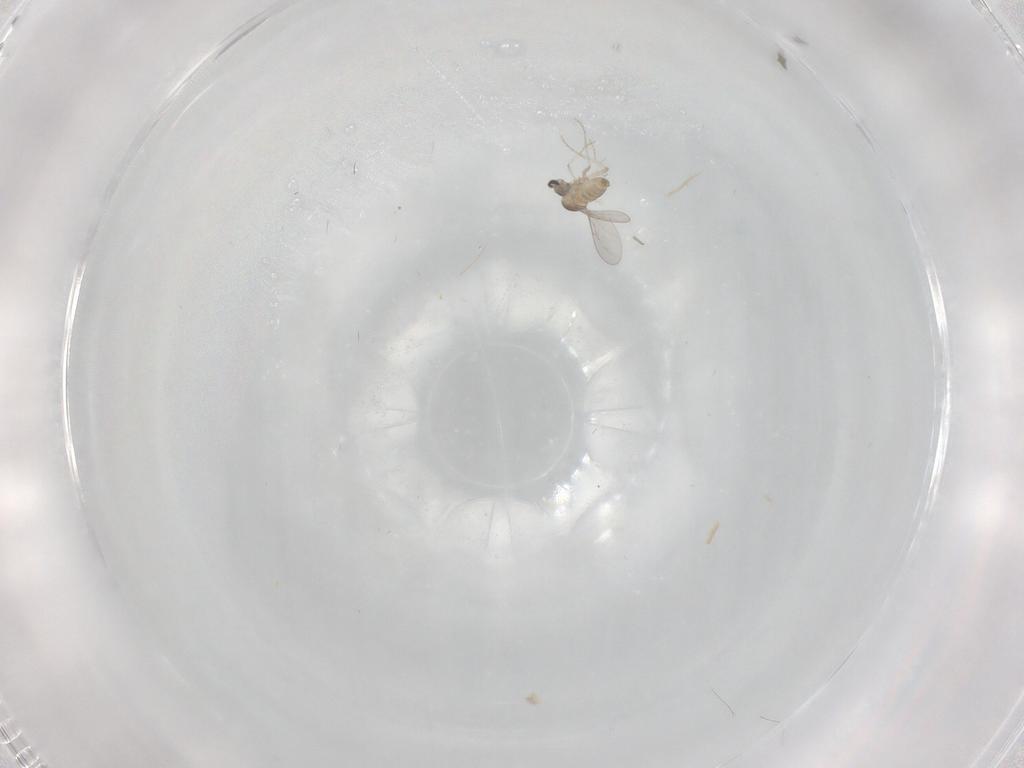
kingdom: Animalia
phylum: Arthropoda
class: Insecta
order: Diptera
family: Cecidomyiidae
